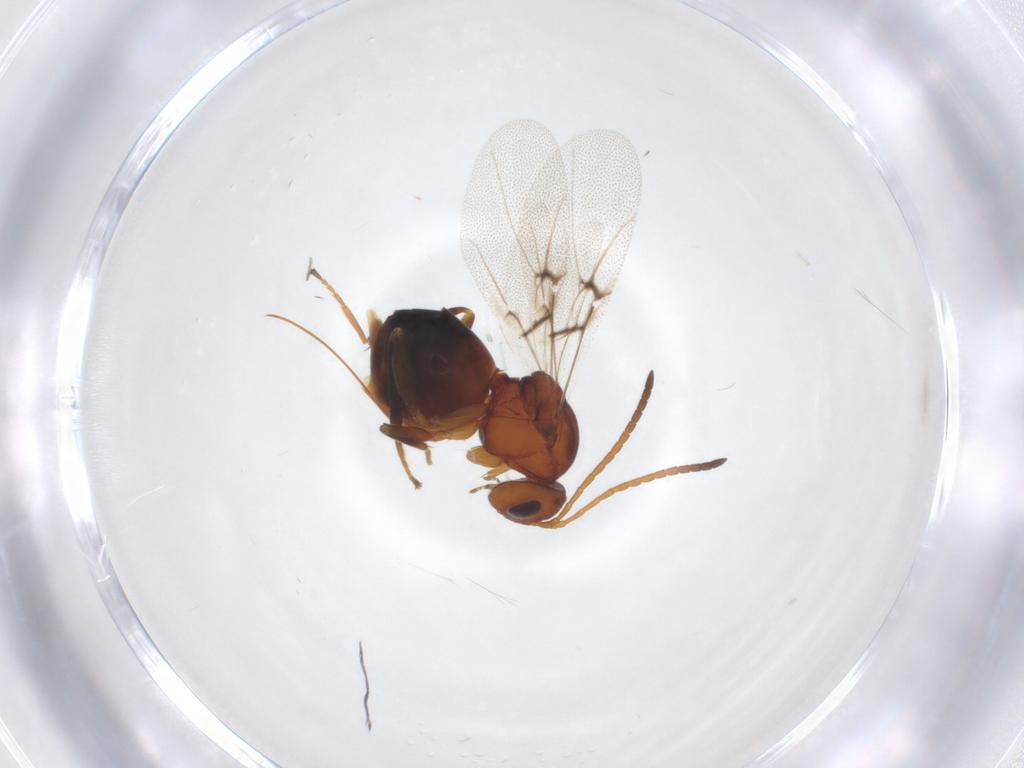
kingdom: Animalia
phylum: Arthropoda
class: Insecta
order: Hymenoptera
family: Cynipidae
